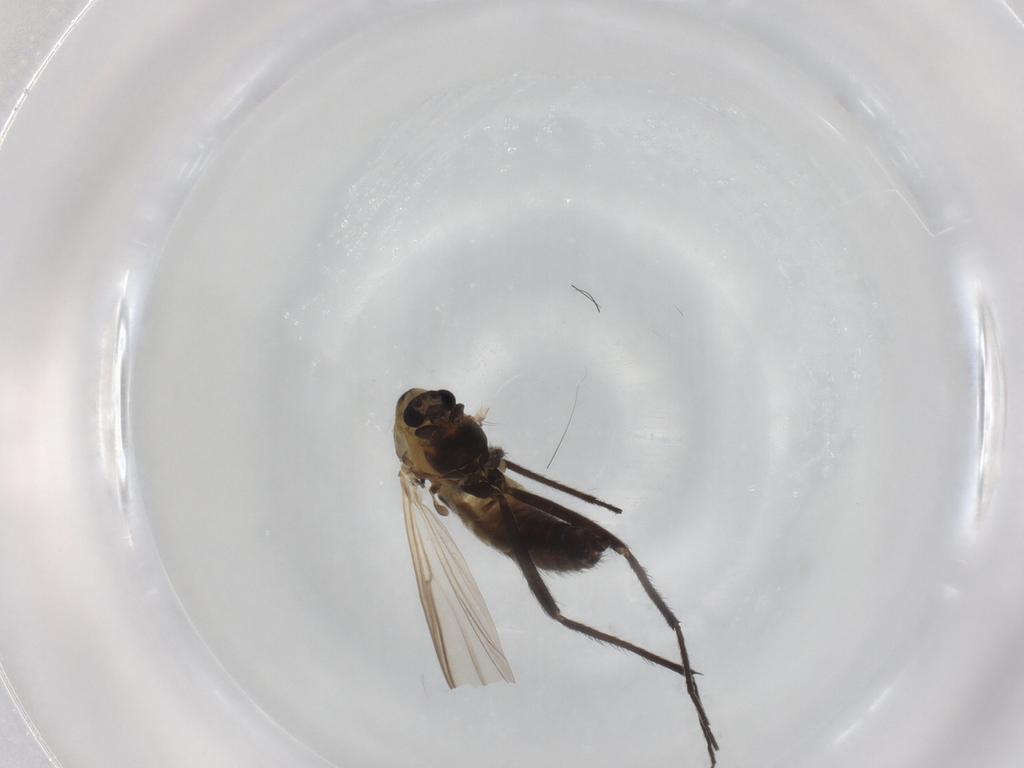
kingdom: Animalia
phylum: Arthropoda
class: Insecta
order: Diptera
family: Chironomidae
